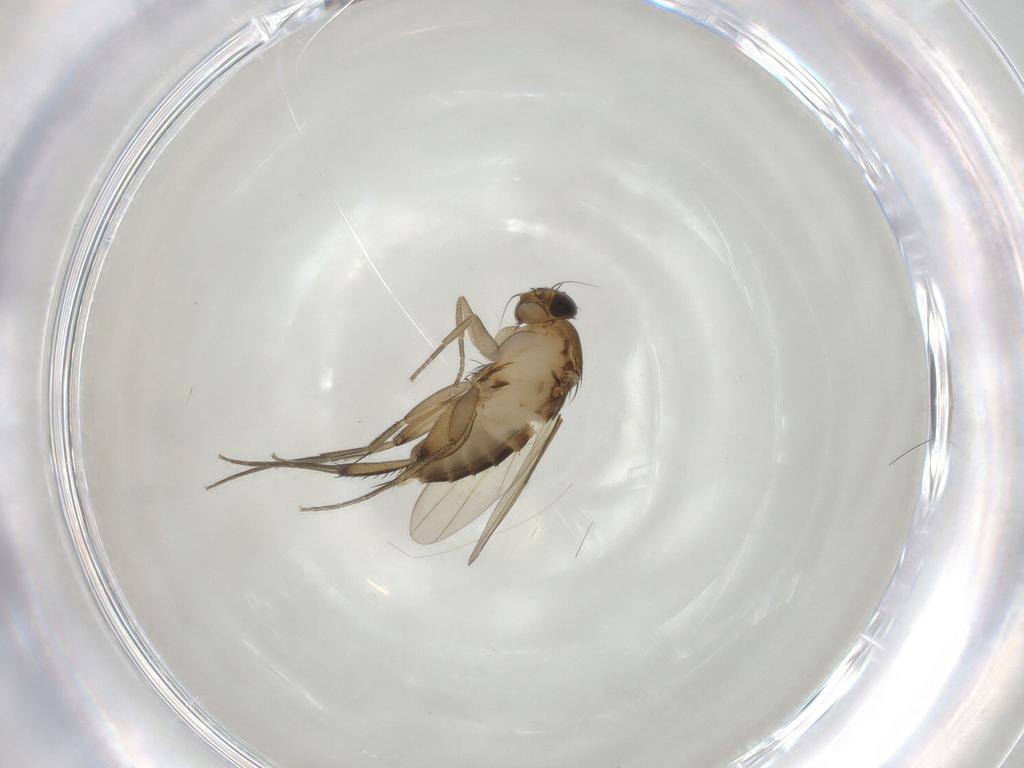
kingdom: Animalia
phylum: Arthropoda
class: Insecta
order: Diptera
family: Phoridae
